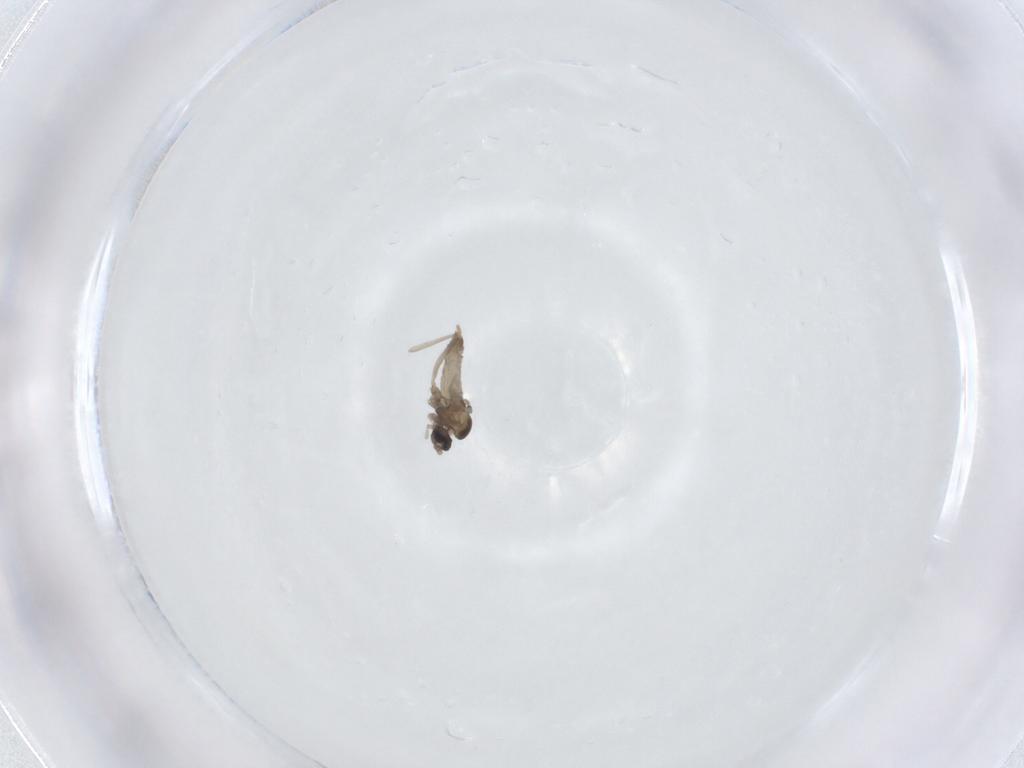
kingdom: Animalia
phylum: Arthropoda
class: Insecta
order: Diptera
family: Cecidomyiidae
